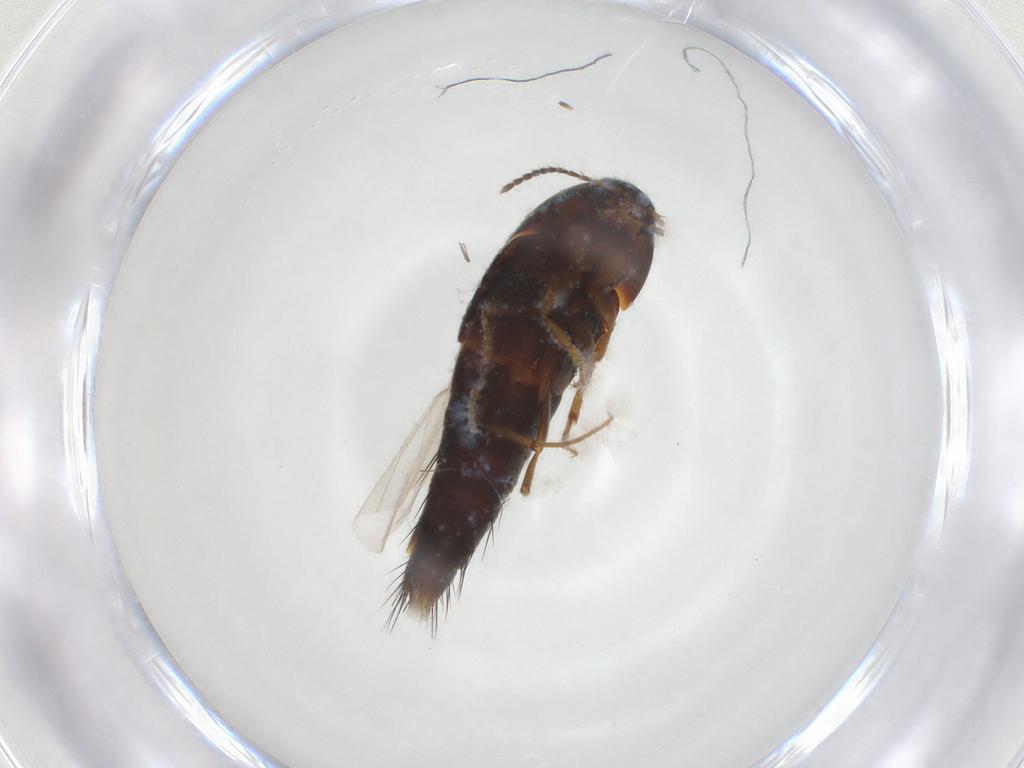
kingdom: Animalia
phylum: Arthropoda
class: Insecta
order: Coleoptera
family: Staphylinidae
